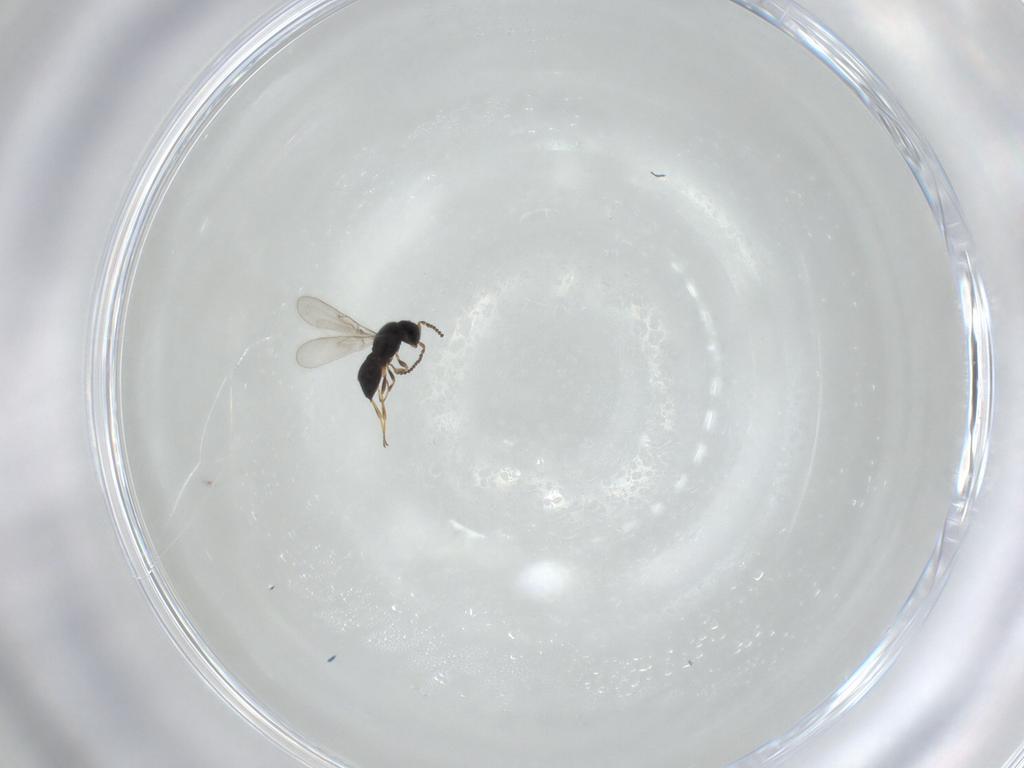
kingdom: Animalia
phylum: Arthropoda
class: Insecta
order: Hymenoptera
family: Scelionidae
